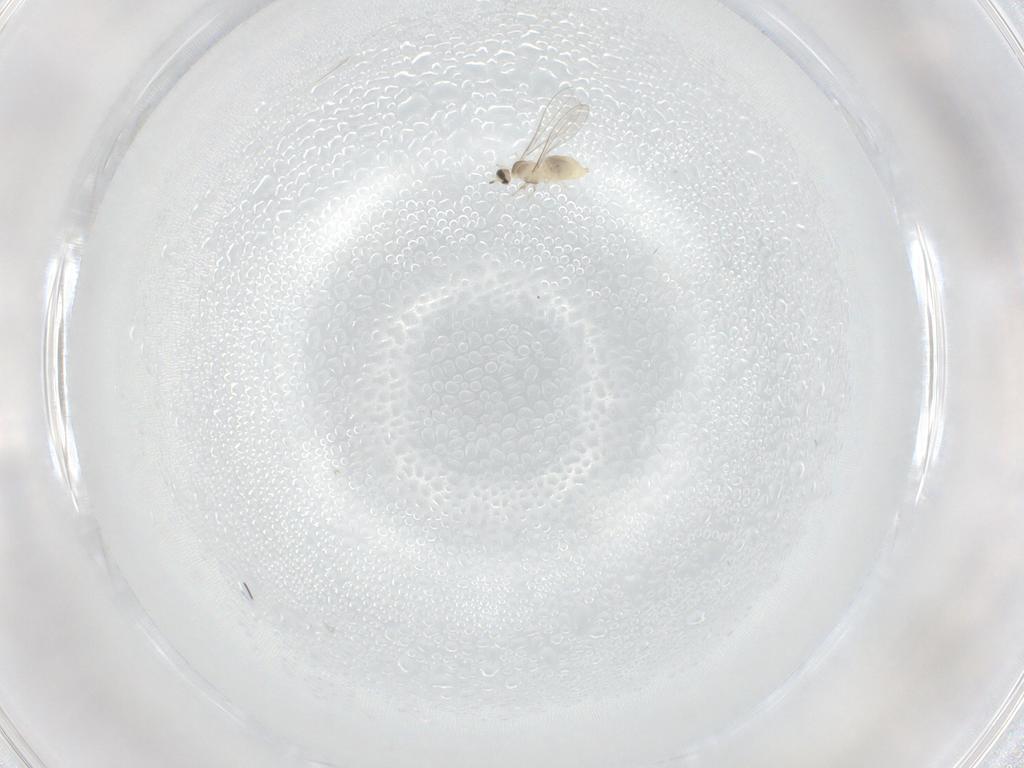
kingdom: Animalia
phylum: Arthropoda
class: Insecta
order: Diptera
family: Cecidomyiidae
